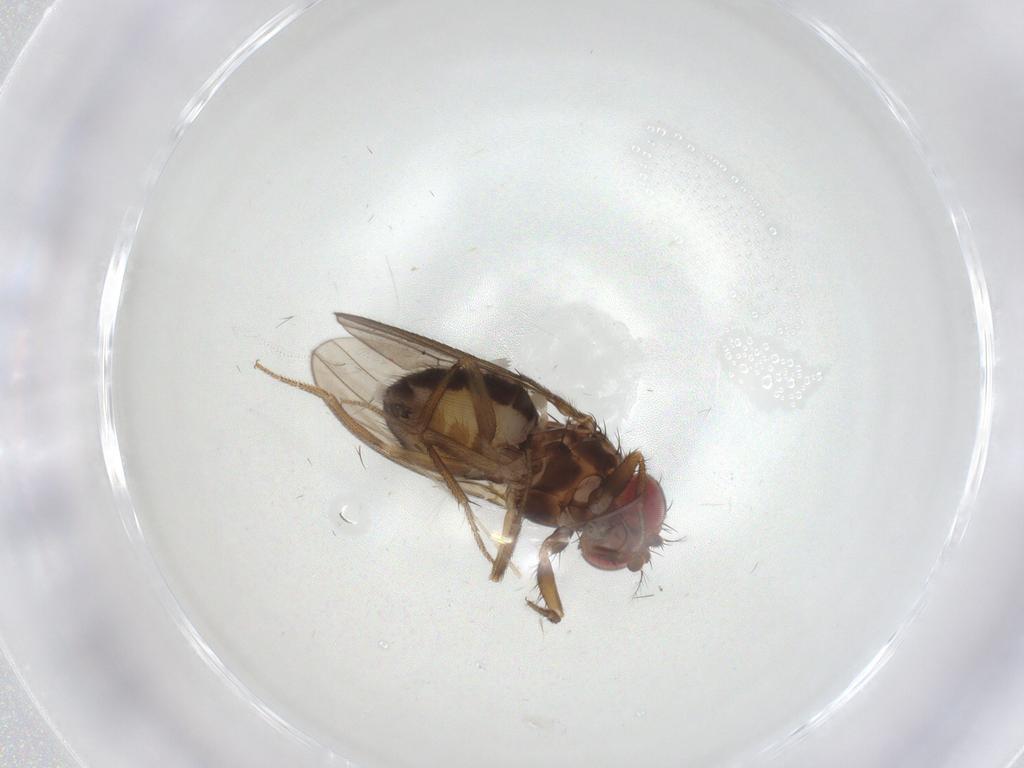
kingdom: Animalia
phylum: Arthropoda
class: Insecta
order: Diptera
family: Drosophilidae
